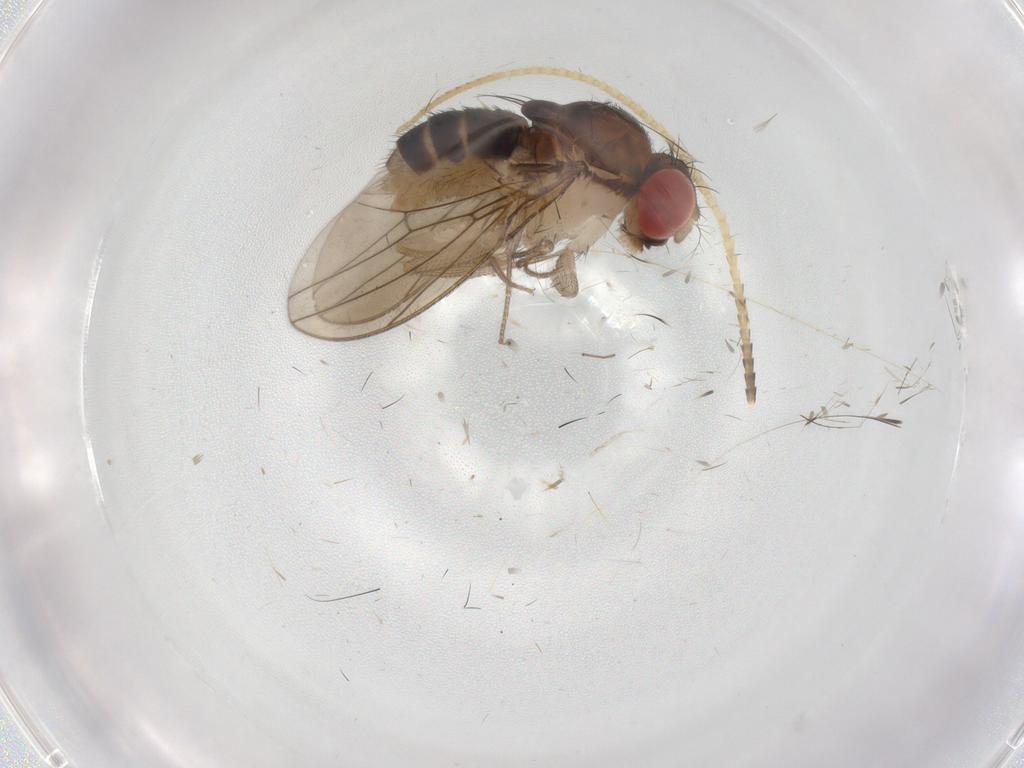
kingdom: Animalia
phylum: Arthropoda
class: Insecta
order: Diptera
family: Drosophilidae
